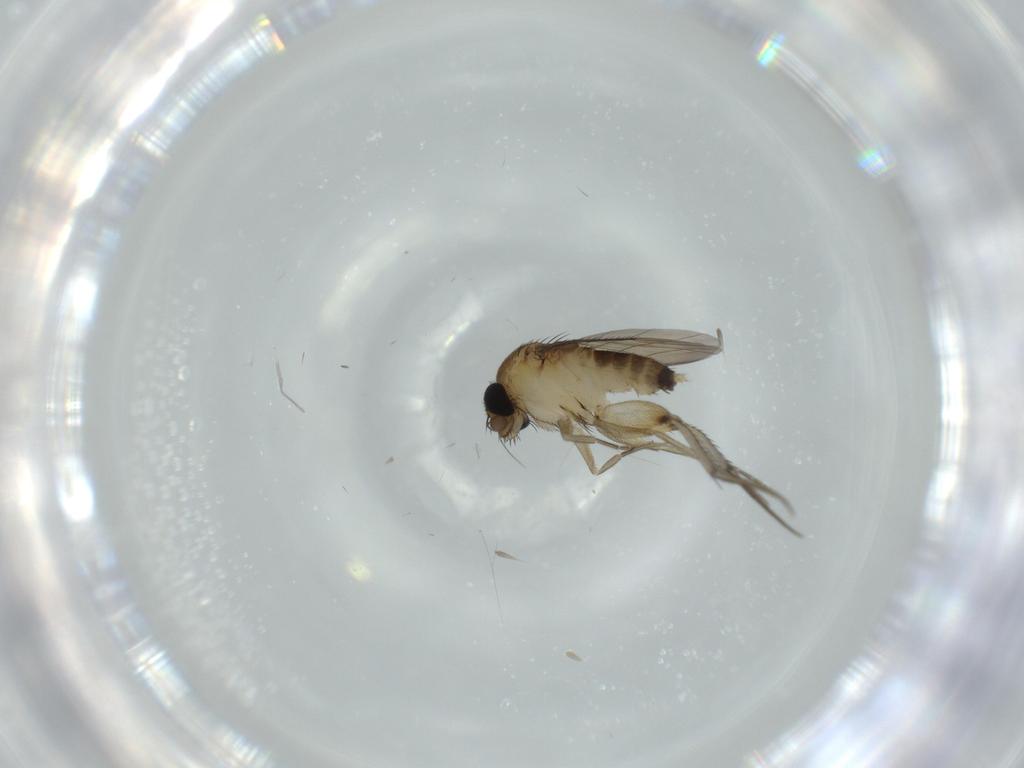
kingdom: Animalia
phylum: Arthropoda
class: Insecta
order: Diptera
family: Phoridae
